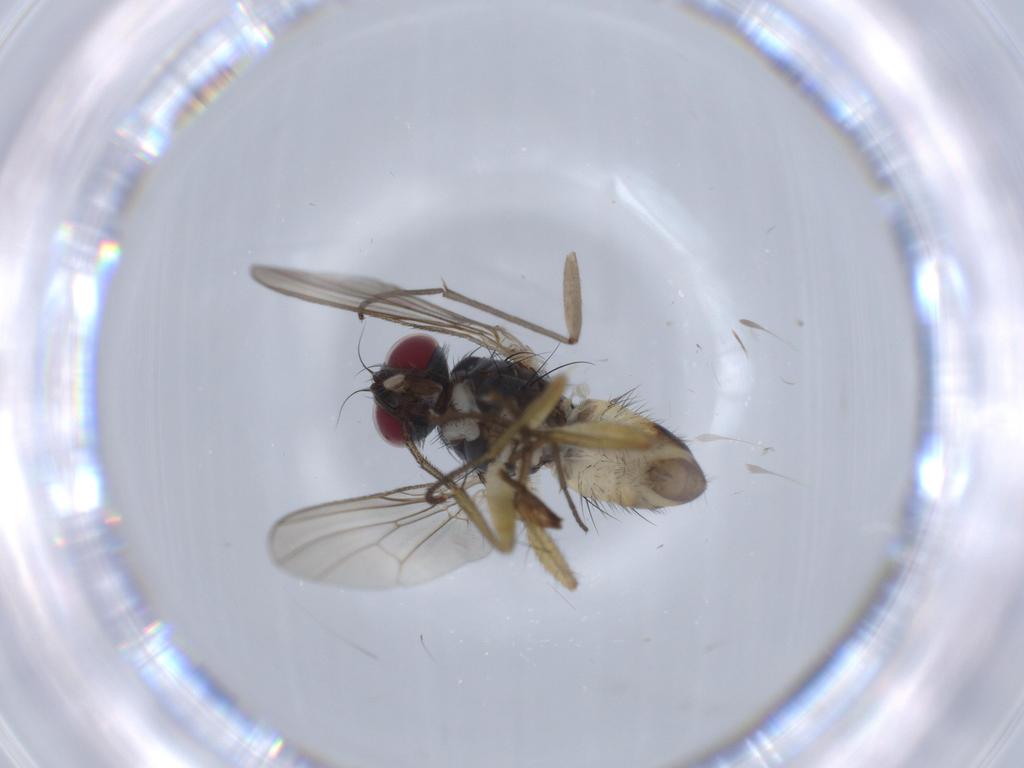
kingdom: Animalia
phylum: Arthropoda
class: Insecta
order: Diptera
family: Muscidae
